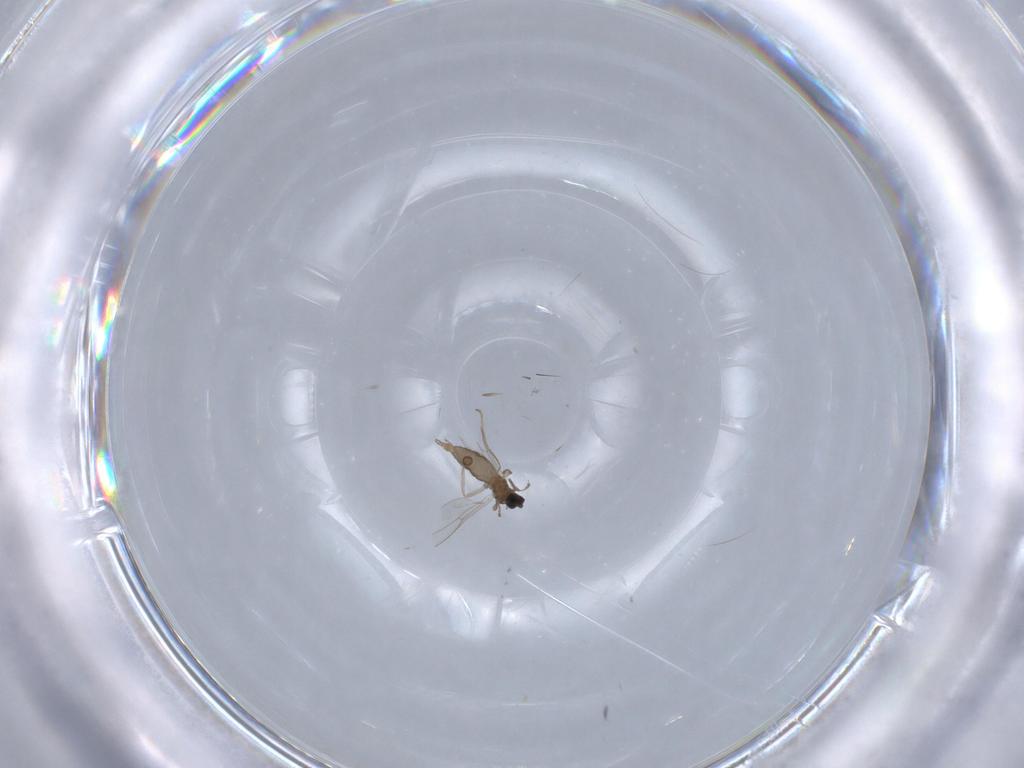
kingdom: Animalia
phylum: Arthropoda
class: Insecta
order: Diptera
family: Cecidomyiidae
